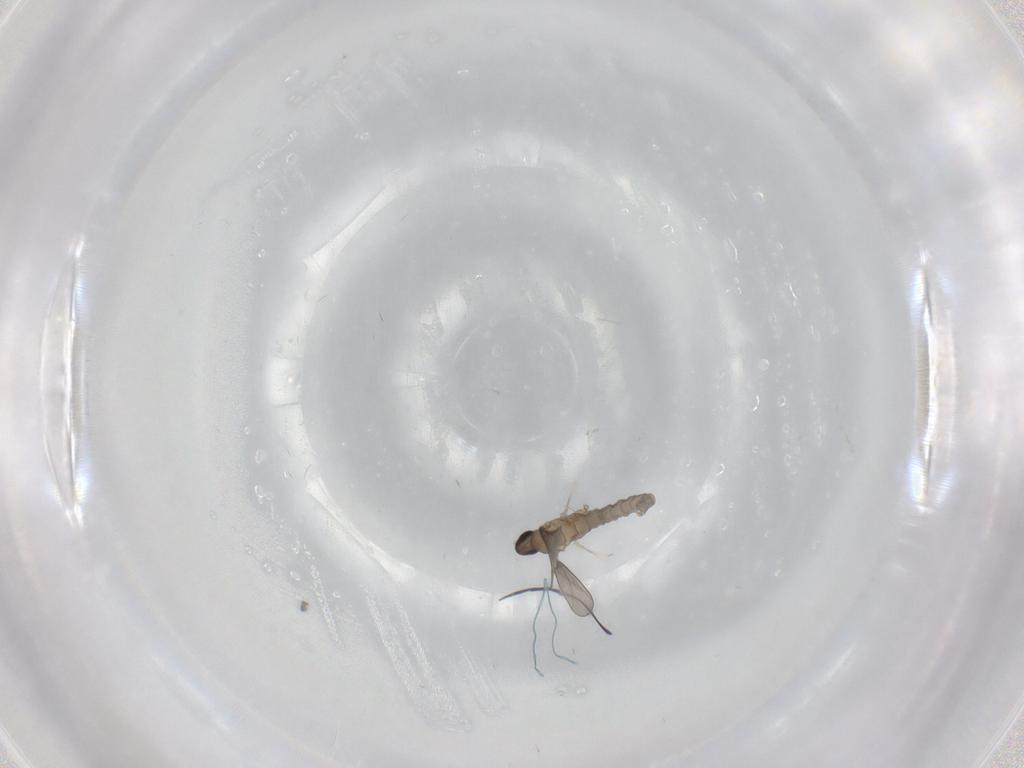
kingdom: Animalia
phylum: Arthropoda
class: Insecta
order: Diptera
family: Cecidomyiidae
